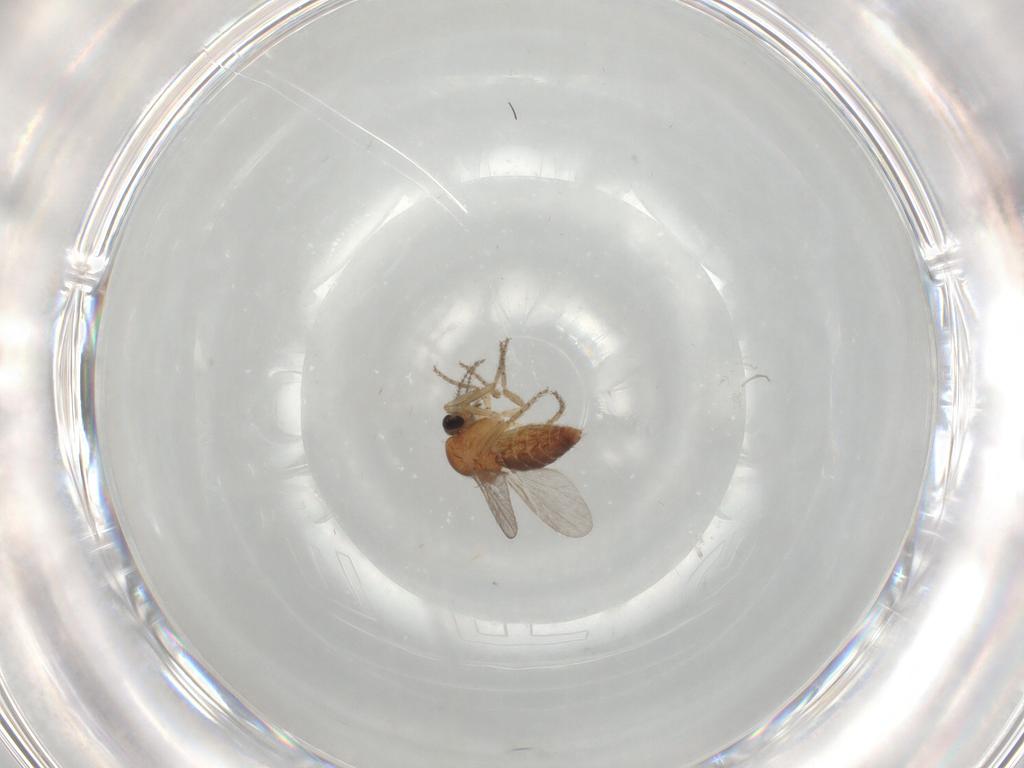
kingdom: Animalia
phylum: Arthropoda
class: Insecta
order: Diptera
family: Ceratopogonidae
